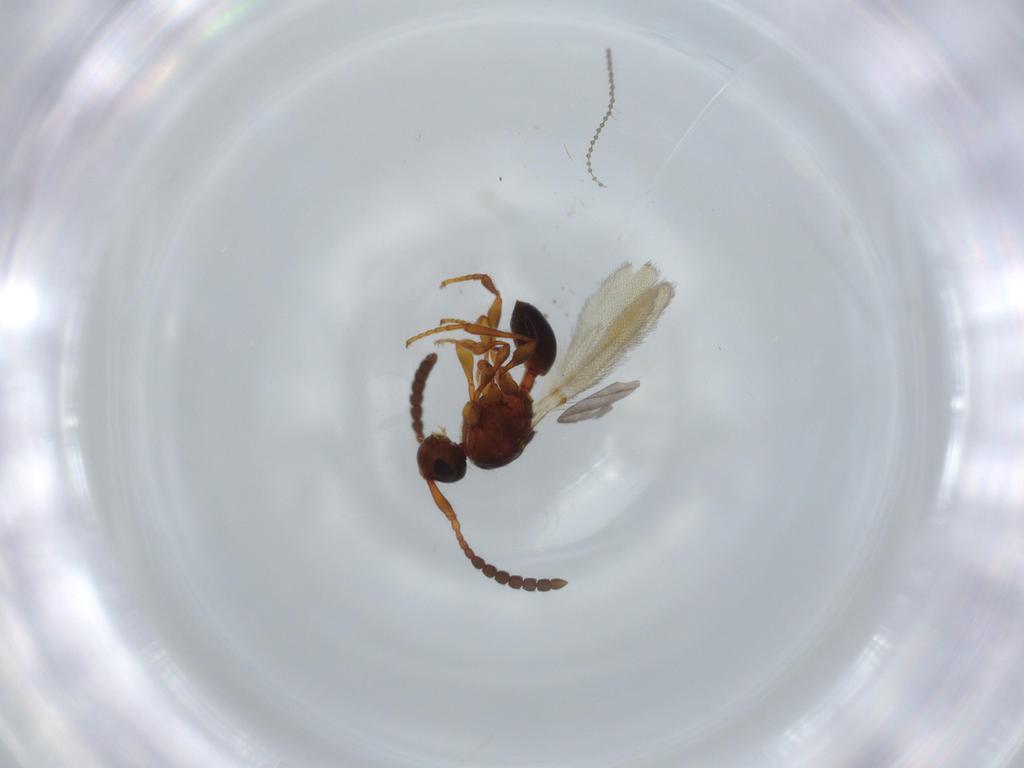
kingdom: Animalia
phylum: Arthropoda
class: Insecta
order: Hymenoptera
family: Diapriidae
